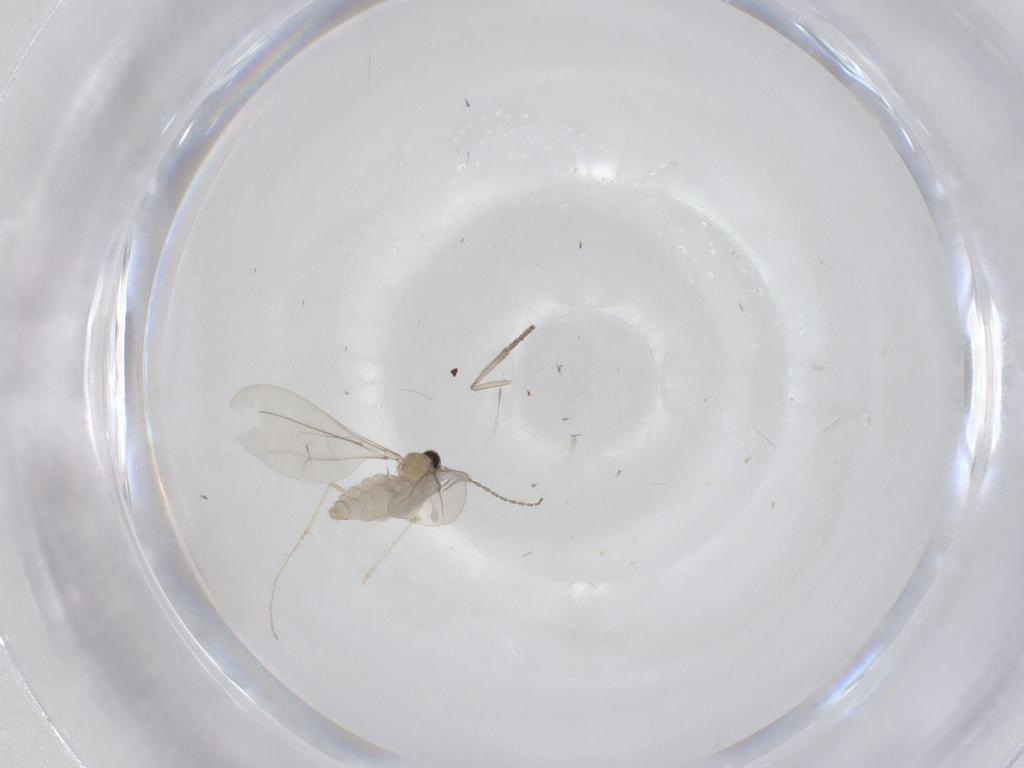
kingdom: Animalia
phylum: Arthropoda
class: Insecta
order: Diptera
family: Cecidomyiidae
